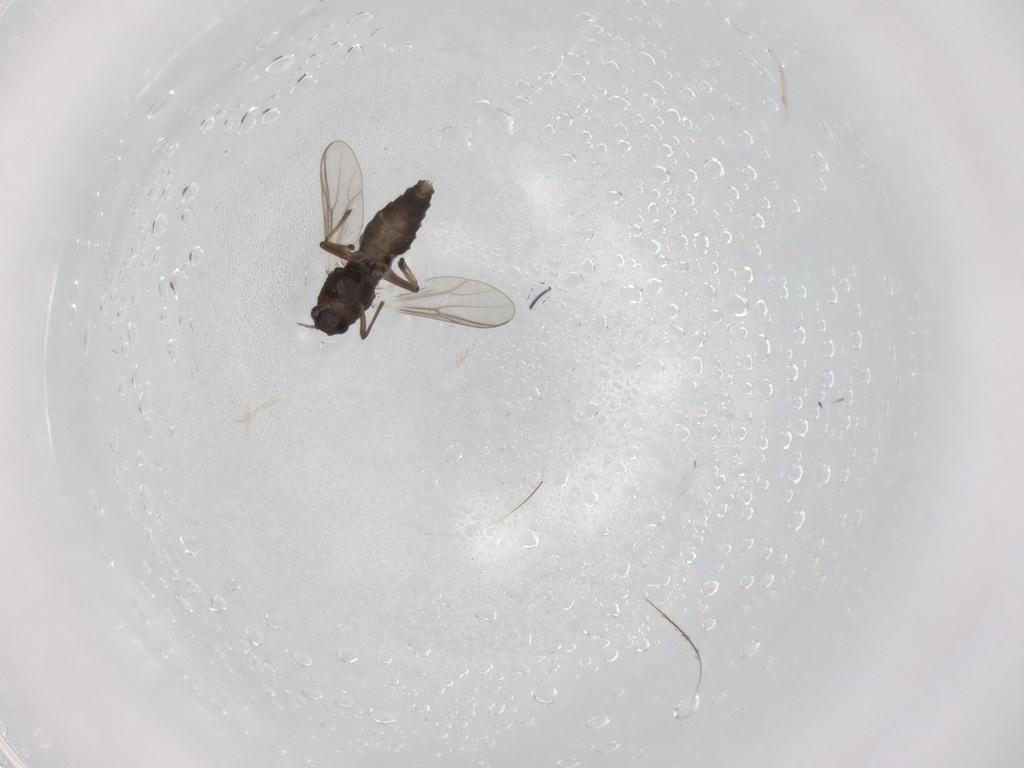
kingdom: Animalia
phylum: Arthropoda
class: Insecta
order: Diptera
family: Chironomidae
